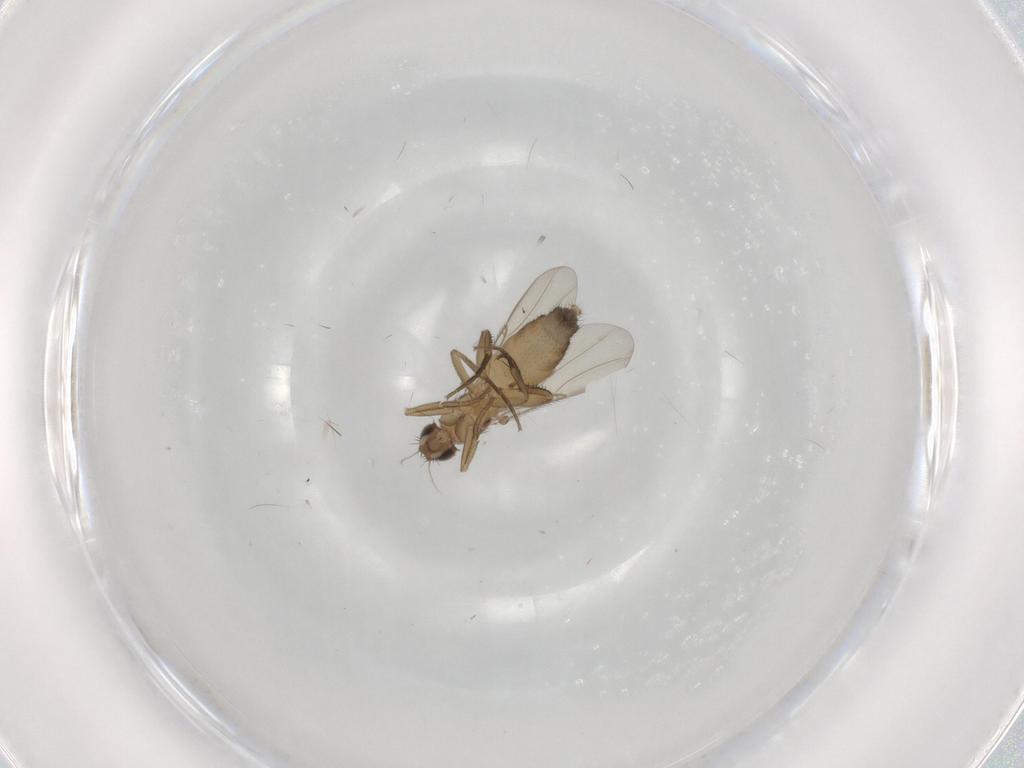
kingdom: Animalia
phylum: Arthropoda
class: Insecta
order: Diptera
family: Phoridae
